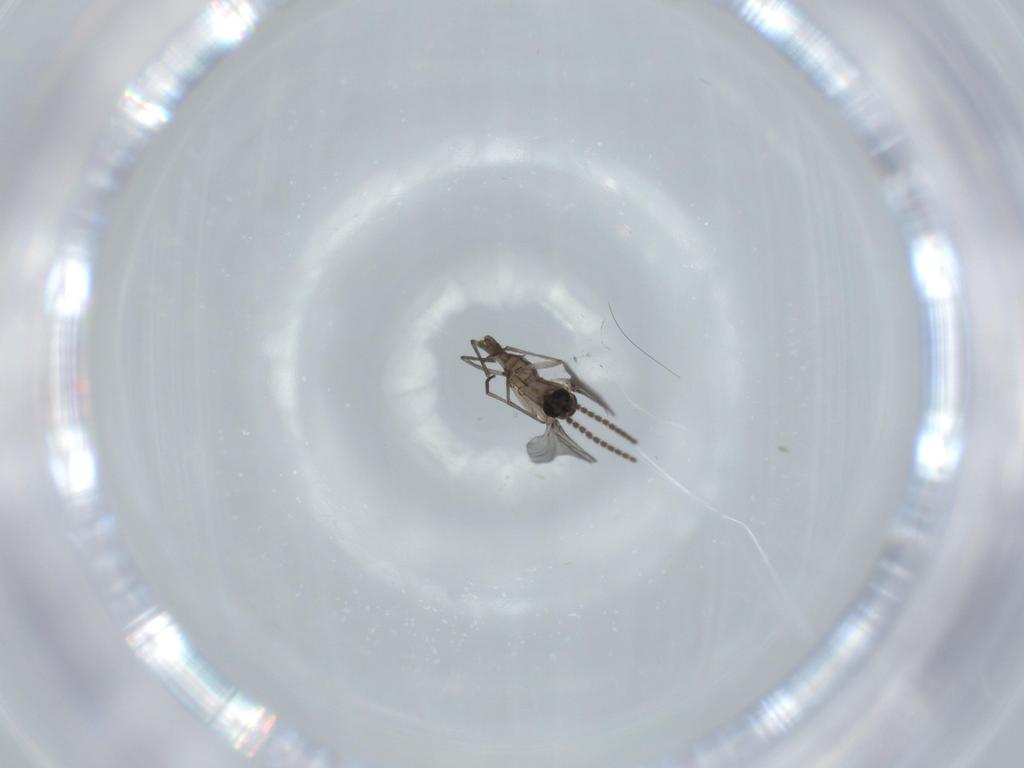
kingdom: Animalia
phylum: Arthropoda
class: Insecta
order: Diptera
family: Sciaridae
